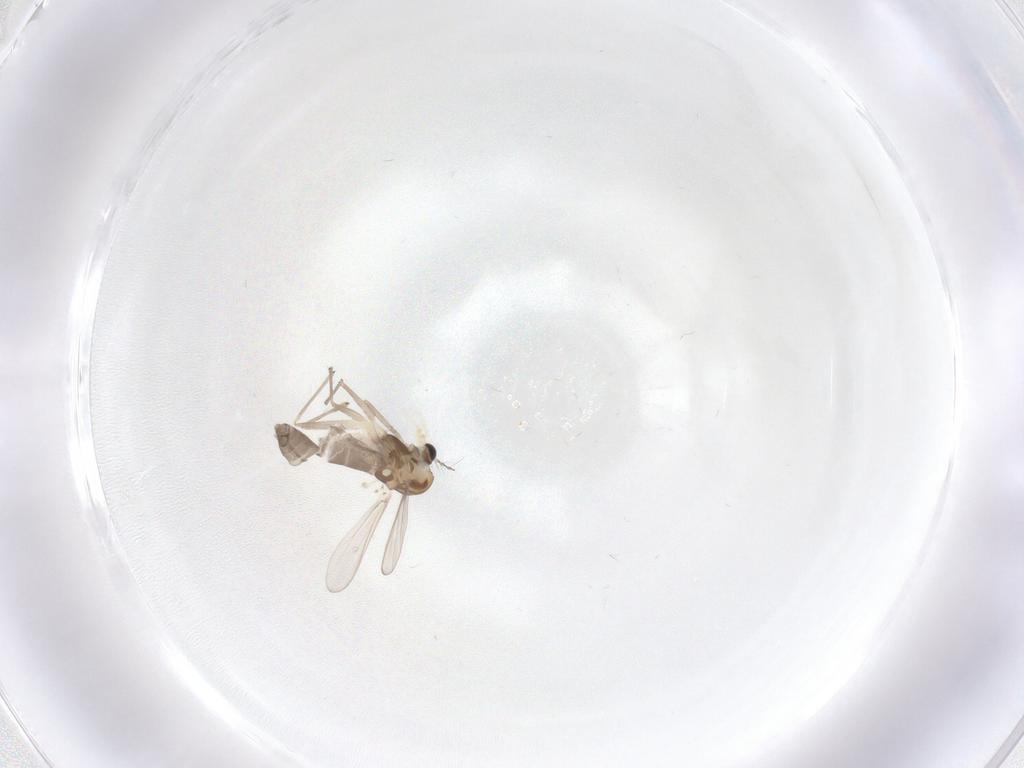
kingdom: Animalia
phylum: Arthropoda
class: Insecta
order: Diptera
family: Chironomidae
